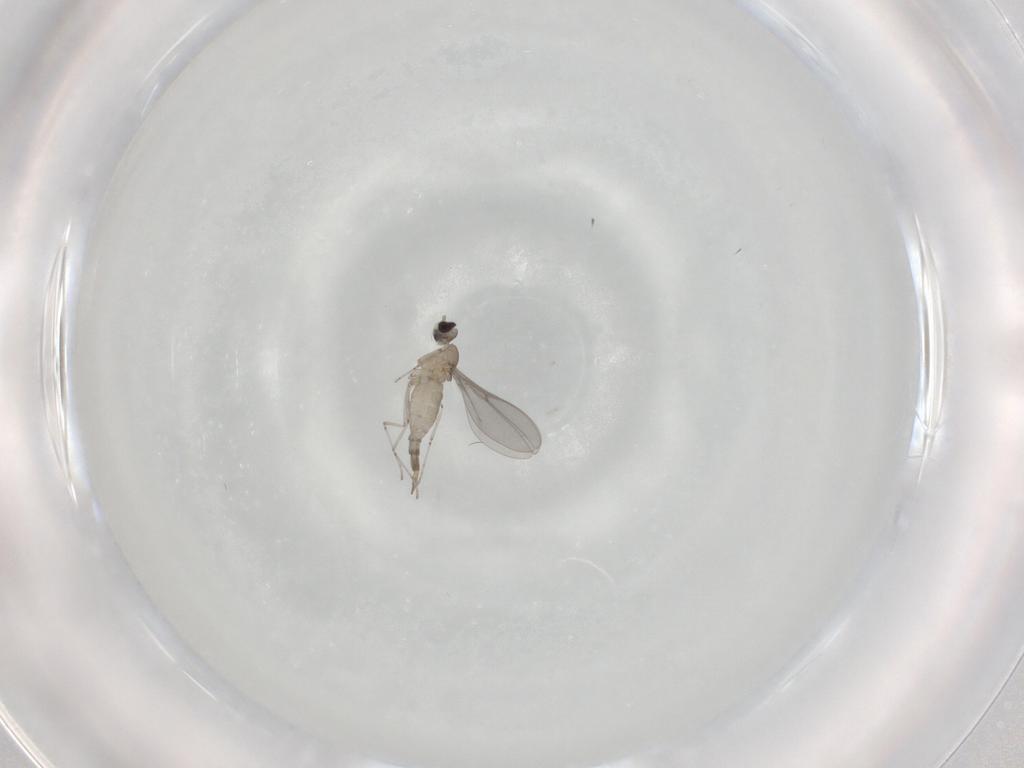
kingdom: Animalia
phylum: Arthropoda
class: Insecta
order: Diptera
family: Cecidomyiidae
